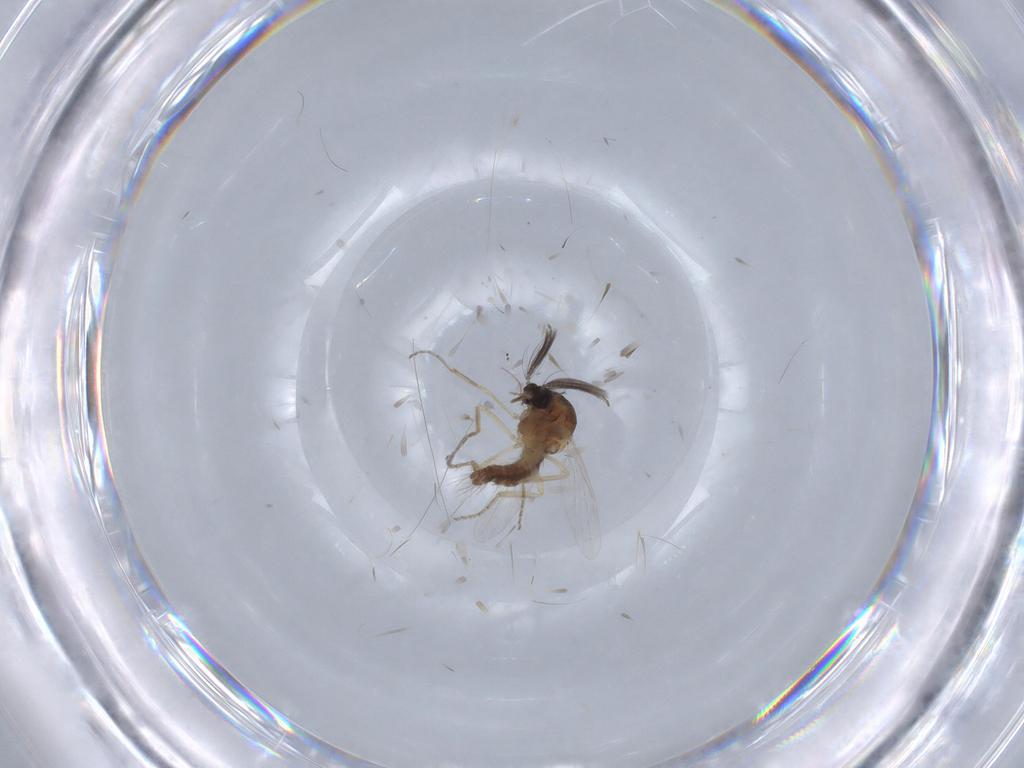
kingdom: Animalia
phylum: Arthropoda
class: Insecta
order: Diptera
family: Ceratopogonidae
